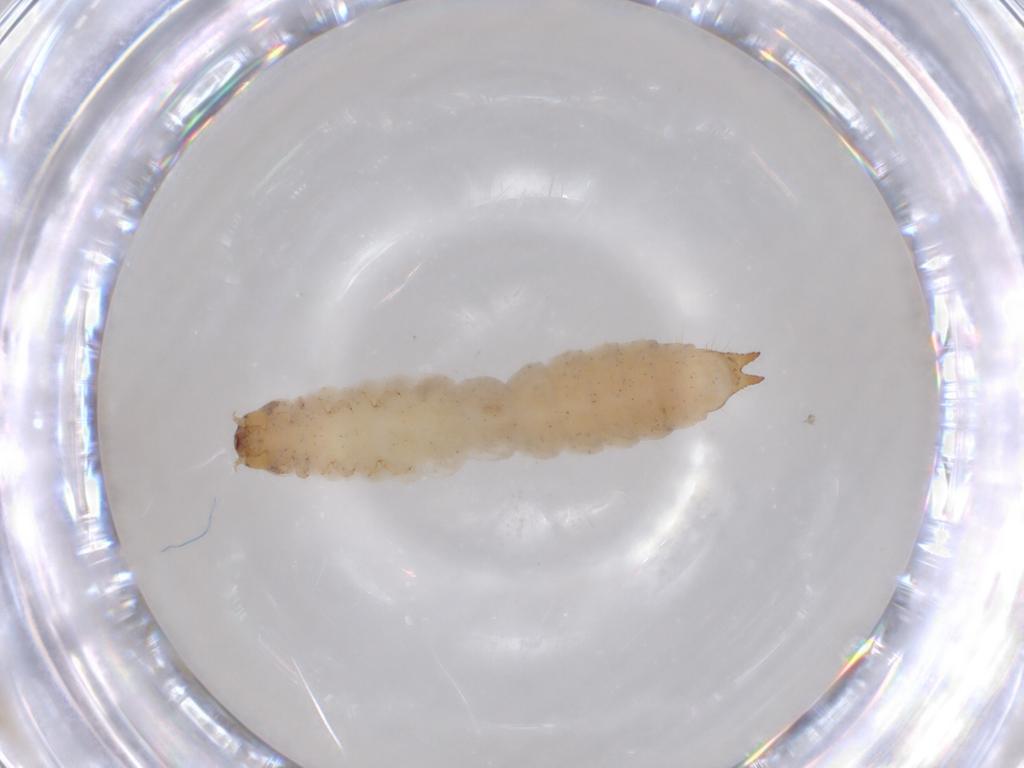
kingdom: Animalia
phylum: Arthropoda
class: Insecta
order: Coleoptera
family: Zopheridae
